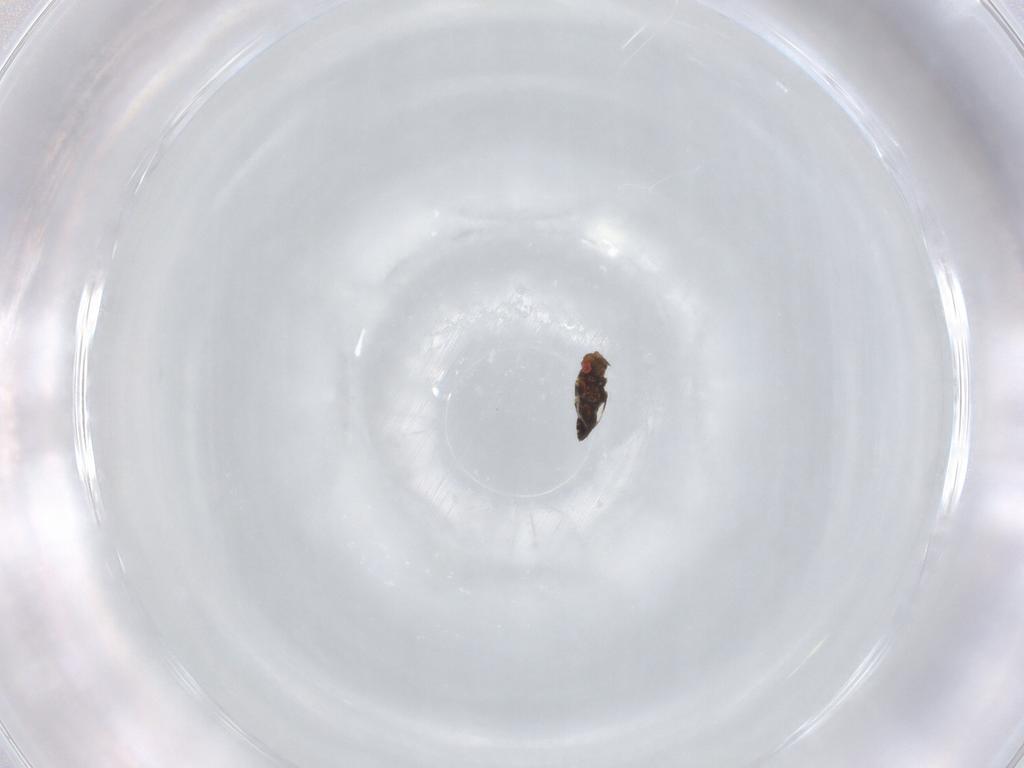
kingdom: Animalia
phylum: Arthropoda
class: Insecta
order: Hymenoptera
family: Trichogrammatidae
